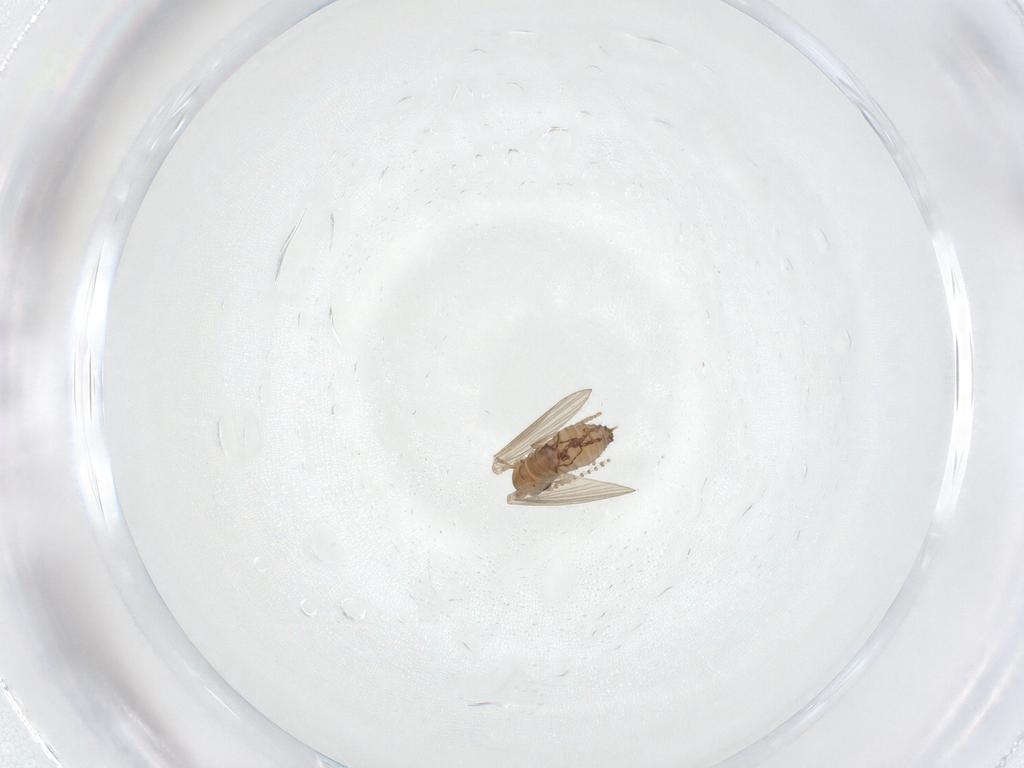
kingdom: Animalia
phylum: Arthropoda
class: Insecta
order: Diptera
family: Psychodidae
